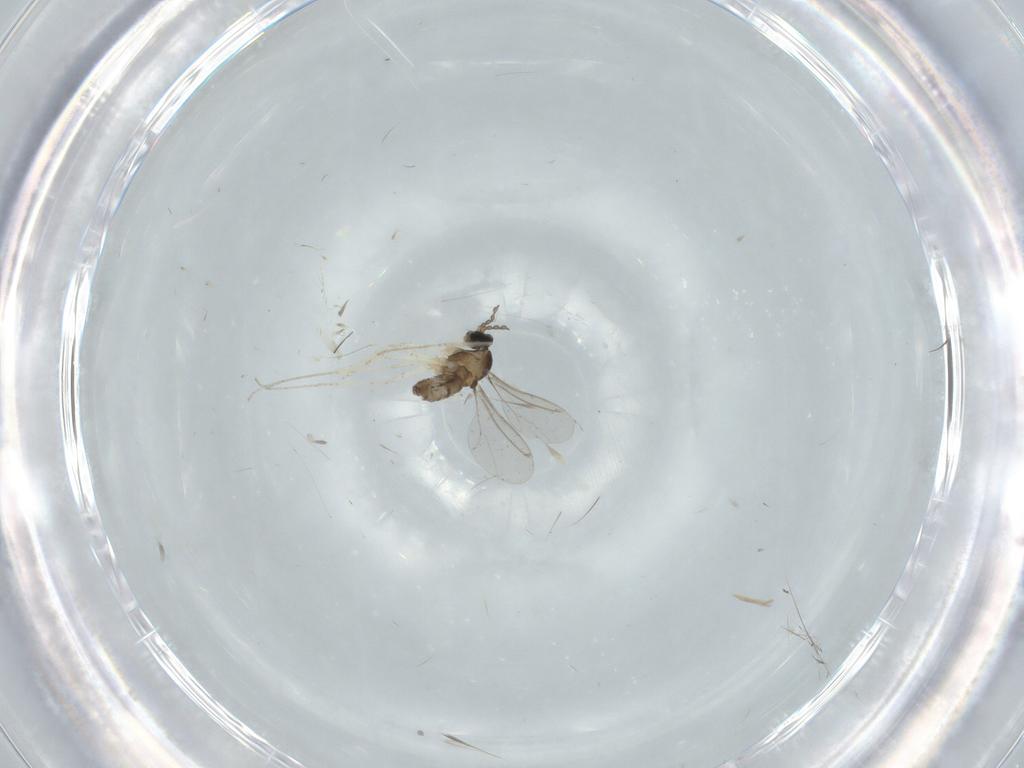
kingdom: Animalia
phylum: Arthropoda
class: Insecta
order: Diptera
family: Cecidomyiidae
